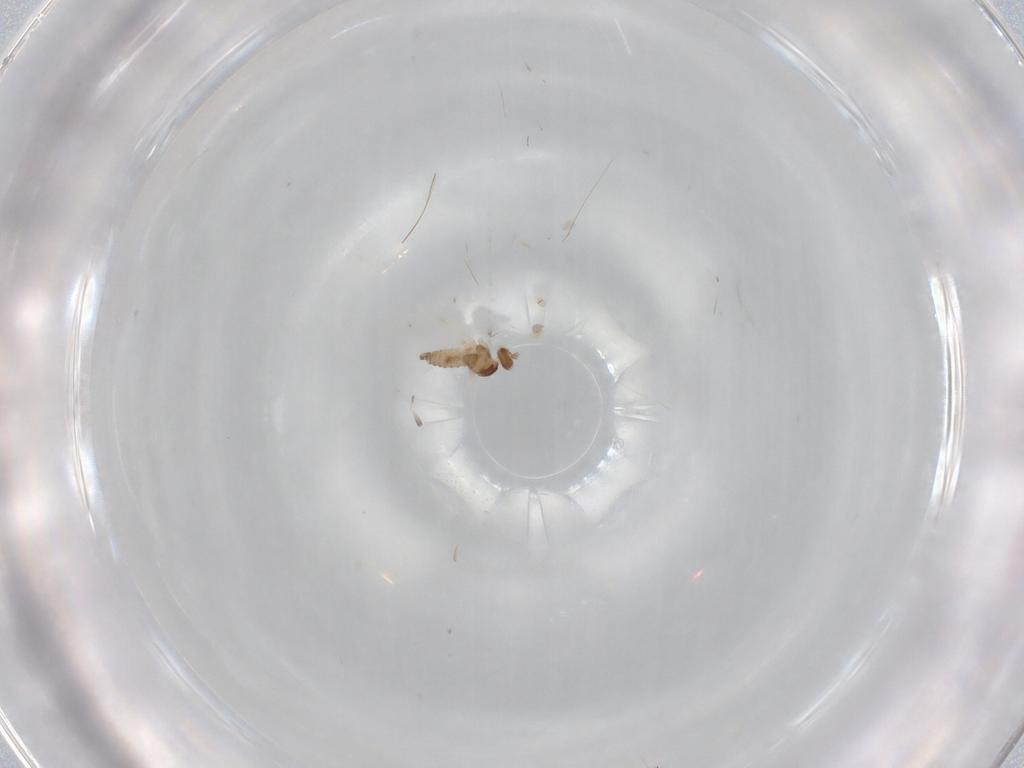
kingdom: Animalia
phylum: Arthropoda
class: Insecta
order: Diptera
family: Cecidomyiidae
